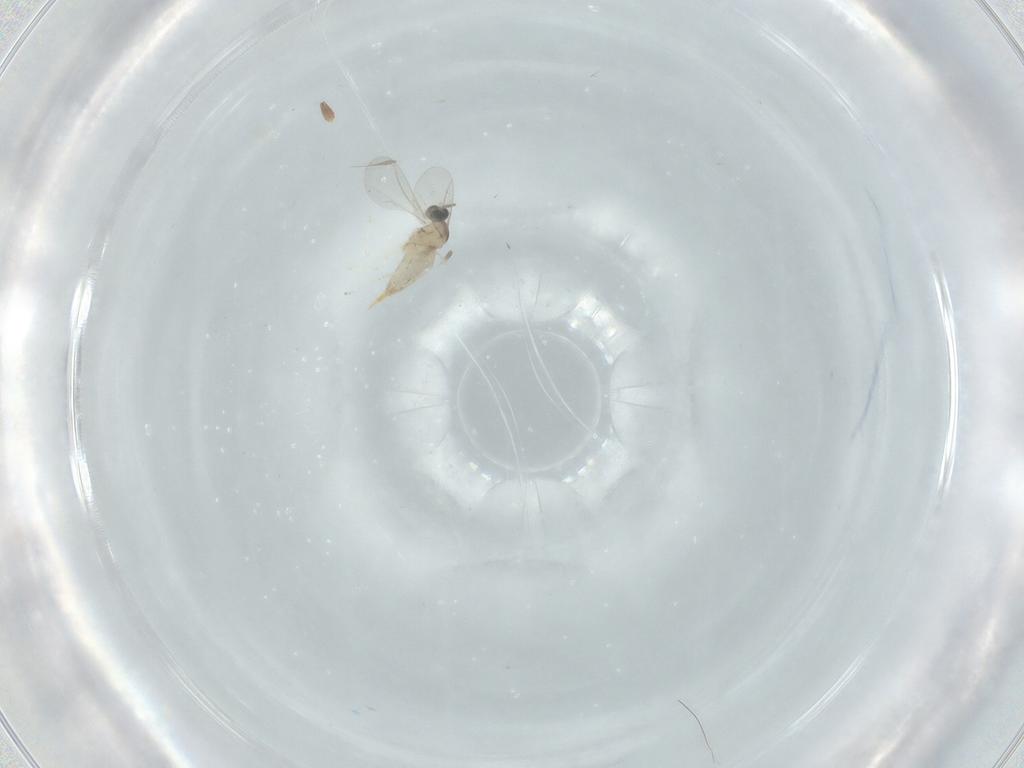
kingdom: Animalia
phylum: Arthropoda
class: Insecta
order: Diptera
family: Cecidomyiidae
